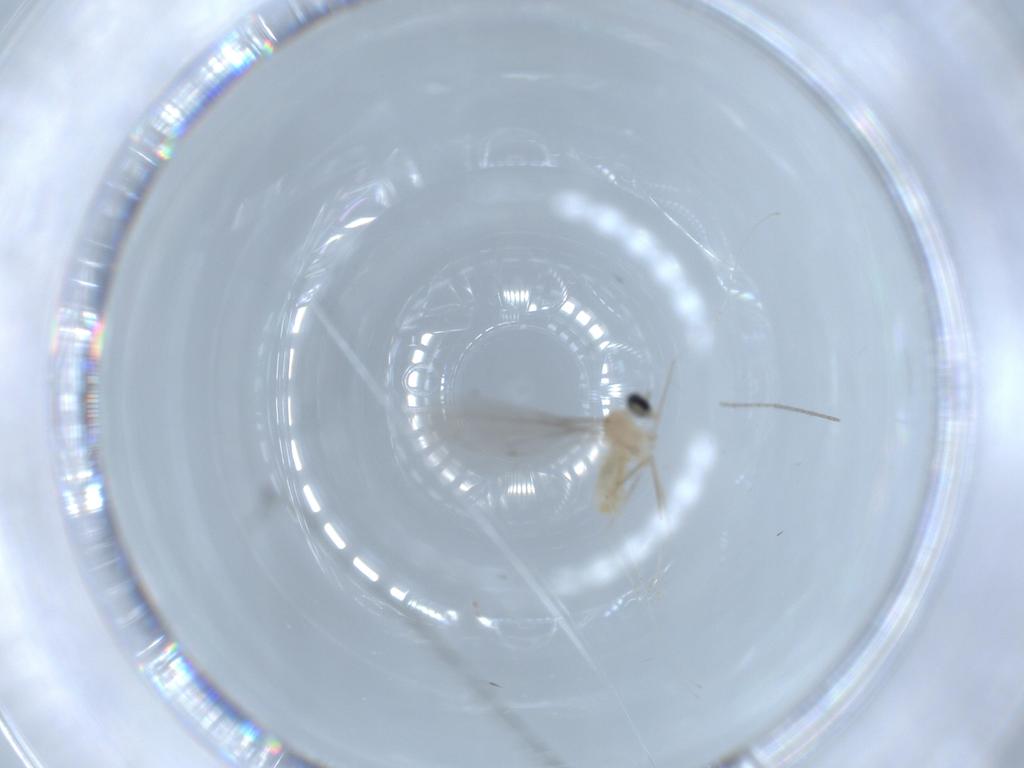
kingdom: Animalia
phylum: Arthropoda
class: Insecta
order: Diptera
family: Cecidomyiidae
